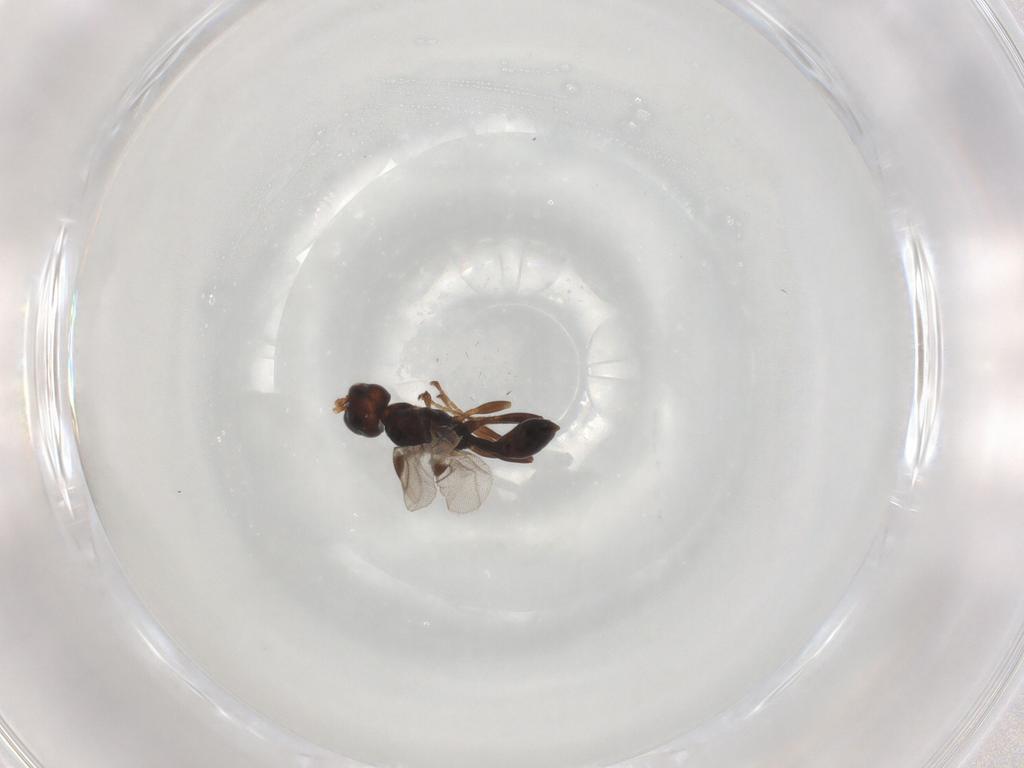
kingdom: Animalia
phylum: Arthropoda
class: Insecta
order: Hymenoptera
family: Braconidae
